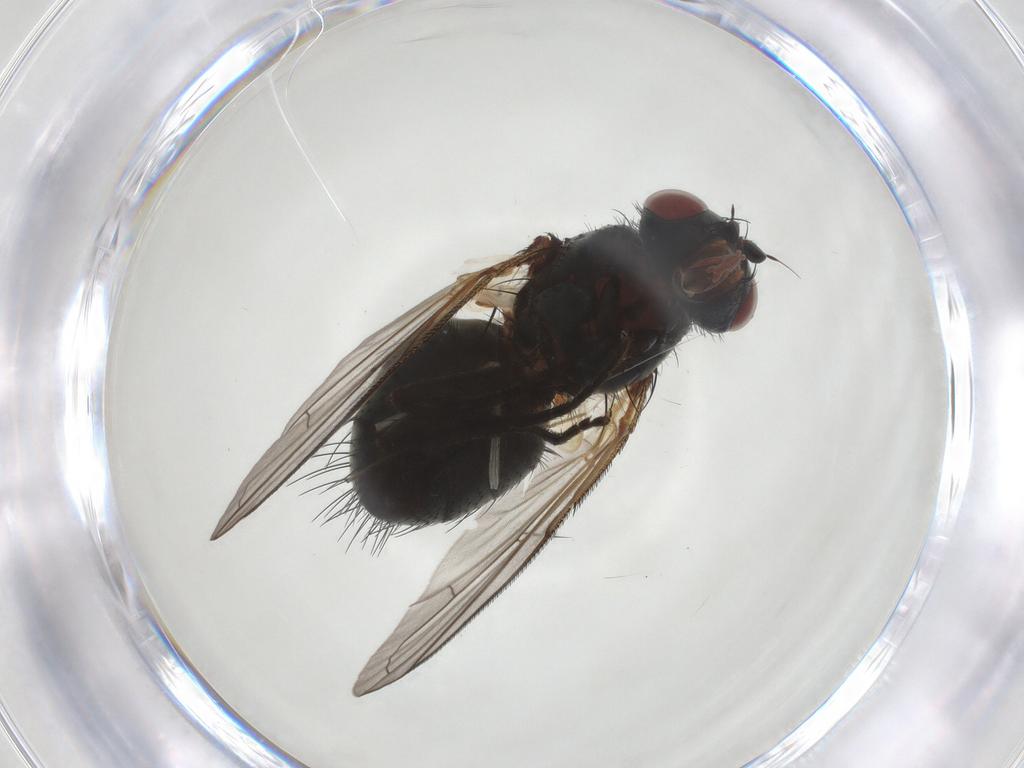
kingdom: Animalia
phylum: Arthropoda
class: Insecta
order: Diptera
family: Tachinidae
